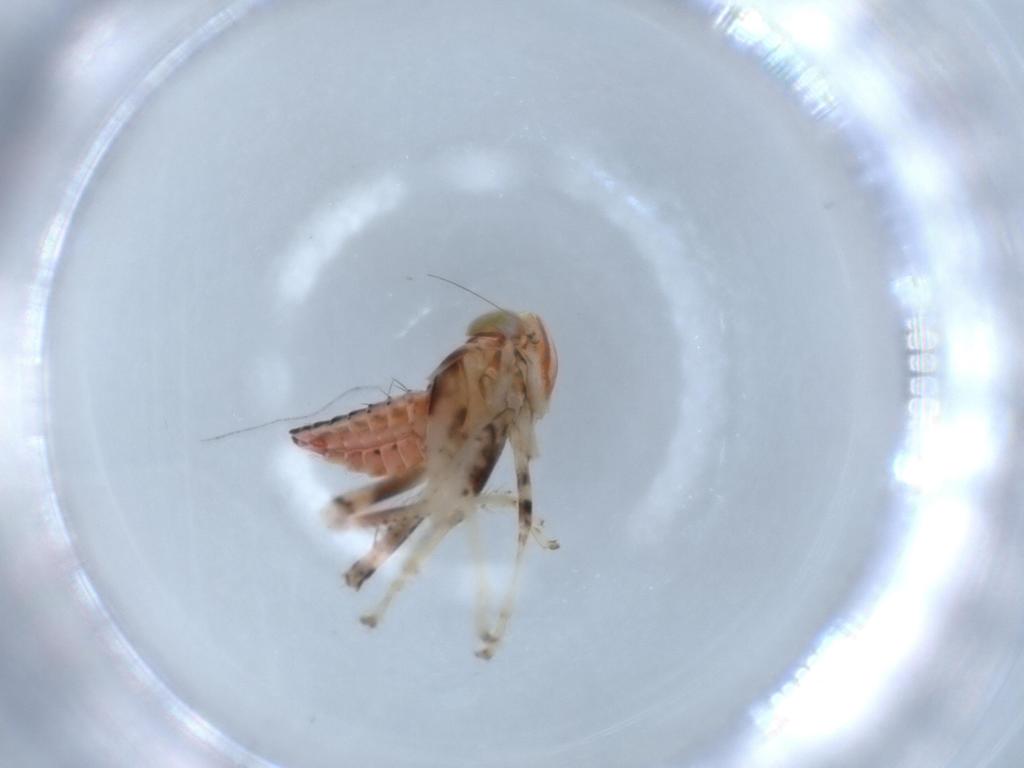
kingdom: Animalia
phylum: Arthropoda
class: Insecta
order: Hemiptera
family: Cicadellidae
